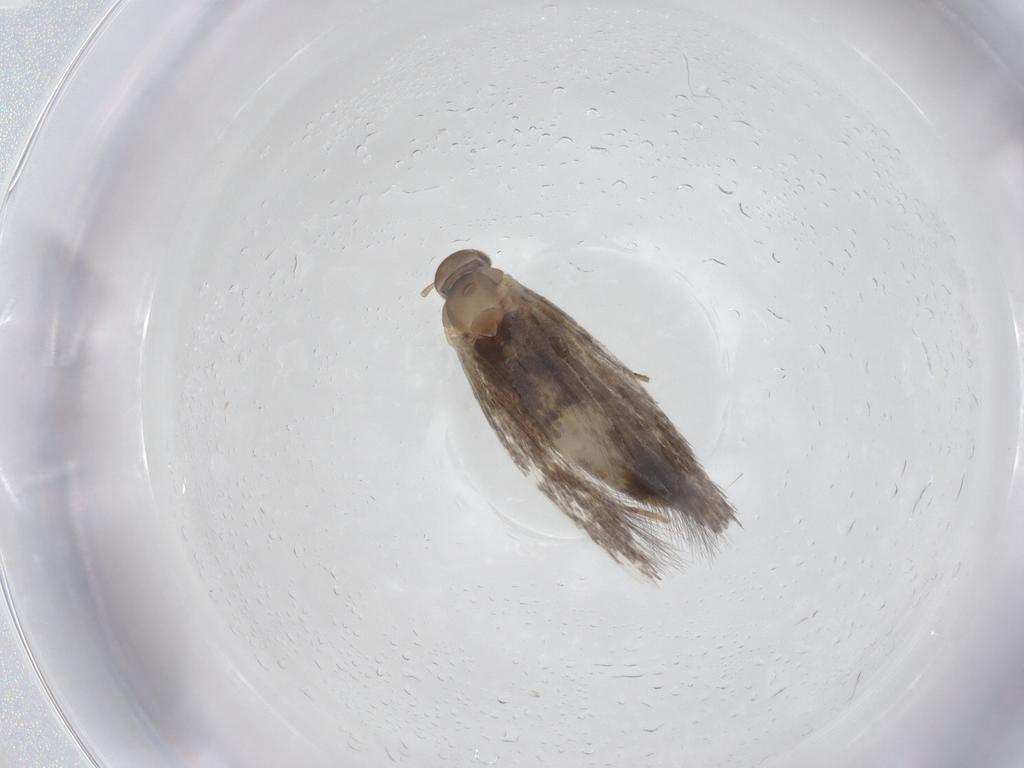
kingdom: Animalia
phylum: Arthropoda
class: Insecta
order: Lepidoptera
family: Elachistidae
